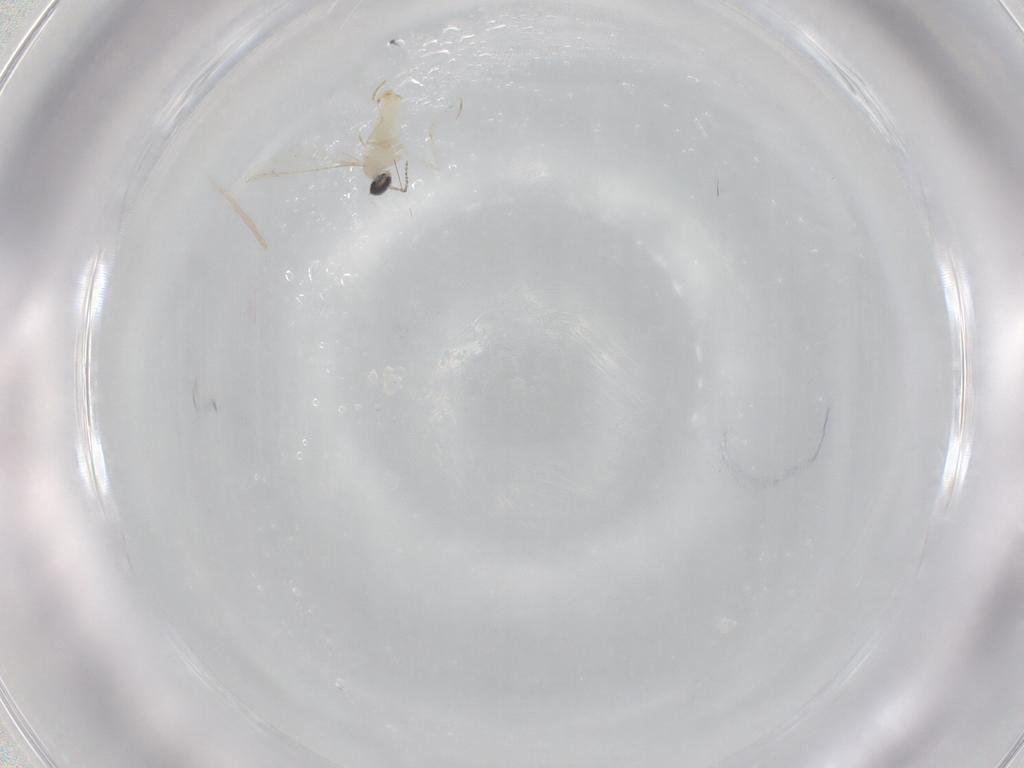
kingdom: Animalia
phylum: Arthropoda
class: Insecta
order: Diptera
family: Cecidomyiidae
